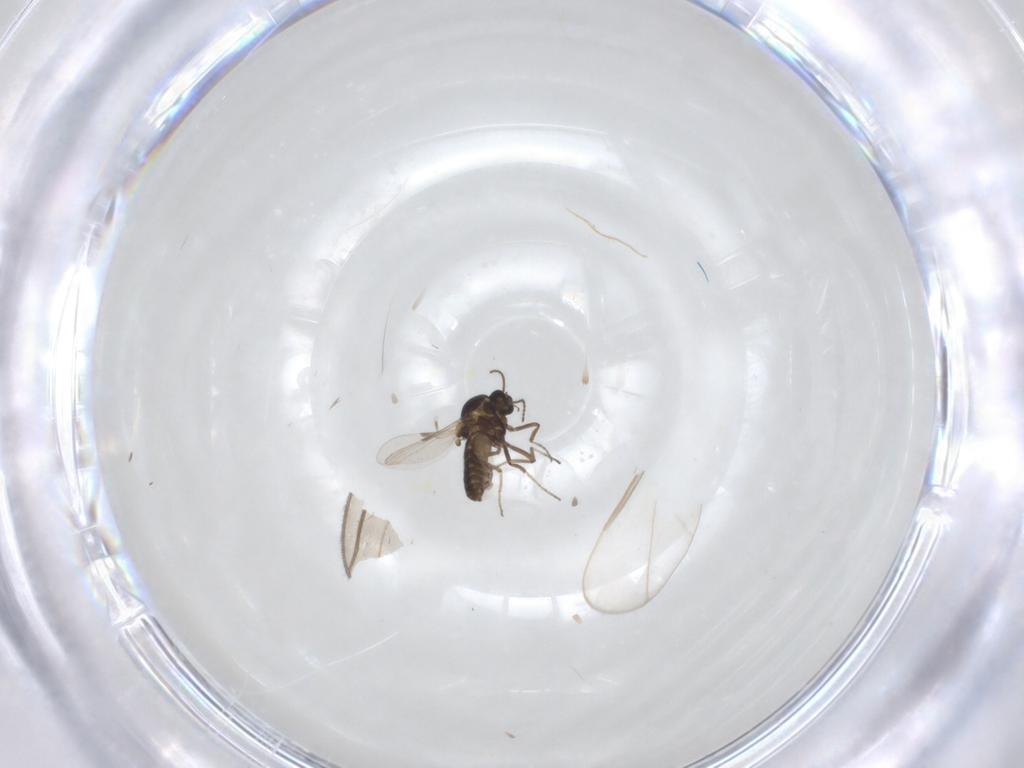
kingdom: Animalia
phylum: Arthropoda
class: Insecta
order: Diptera
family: Ceratopogonidae
